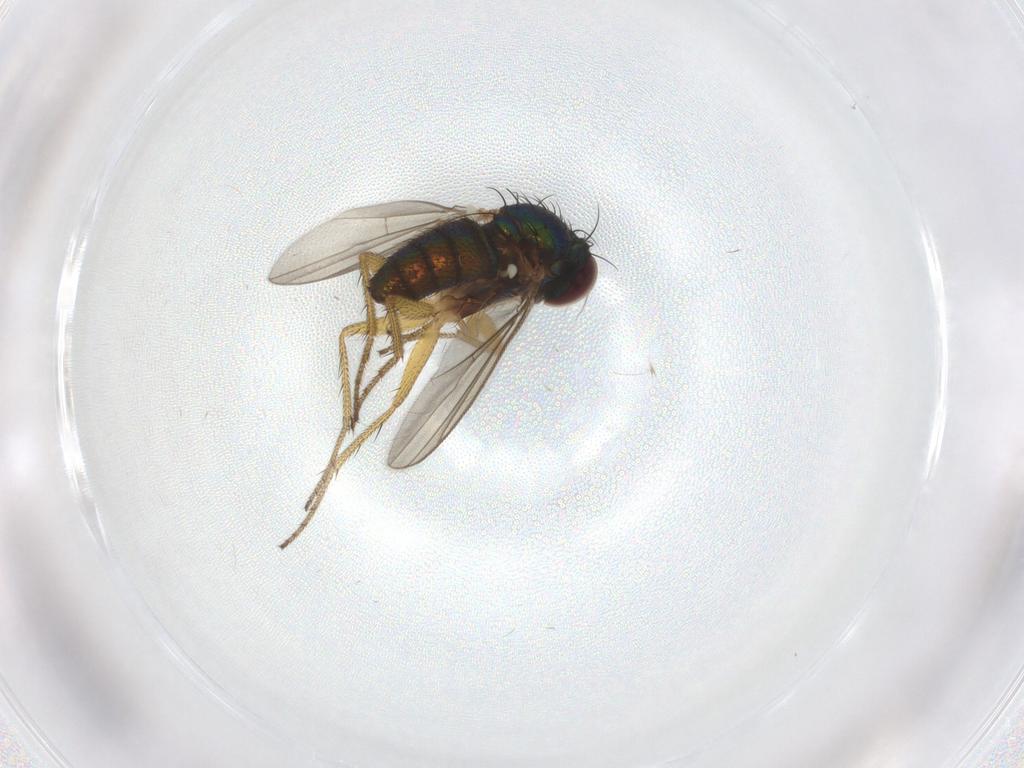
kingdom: Animalia
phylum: Arthropoda
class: Insecta
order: Diptera
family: Dolichopodidae
